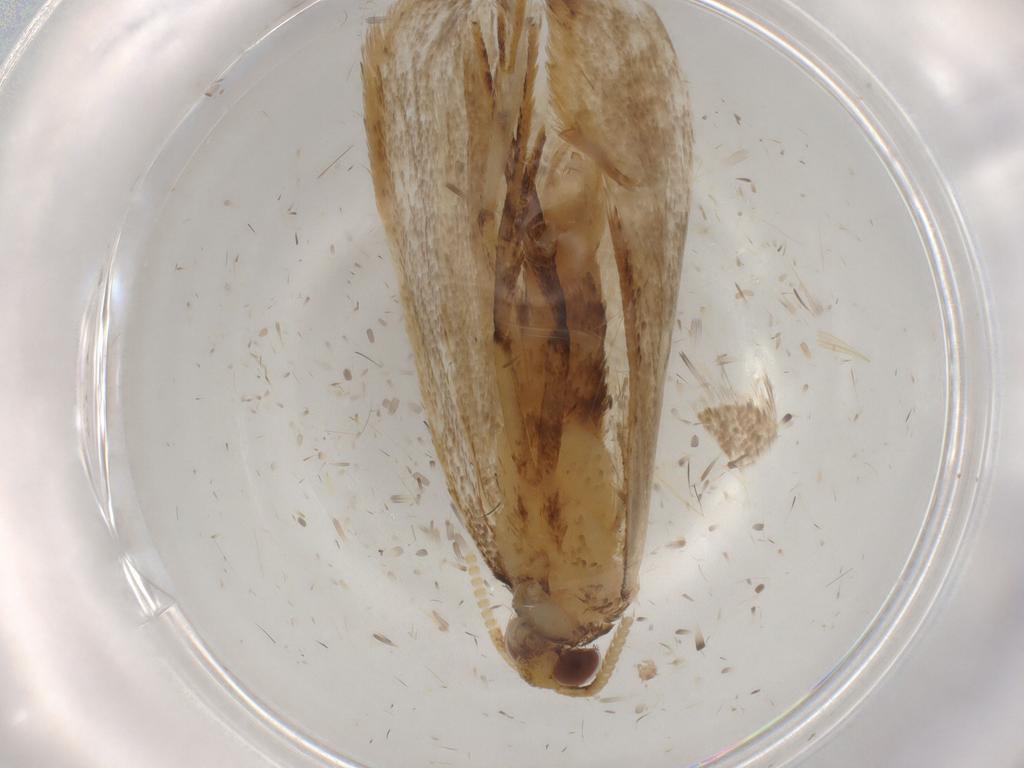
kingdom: Animalia
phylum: Arthropoda
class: Insecta
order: Lepidoptera
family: Lecithoceridae
